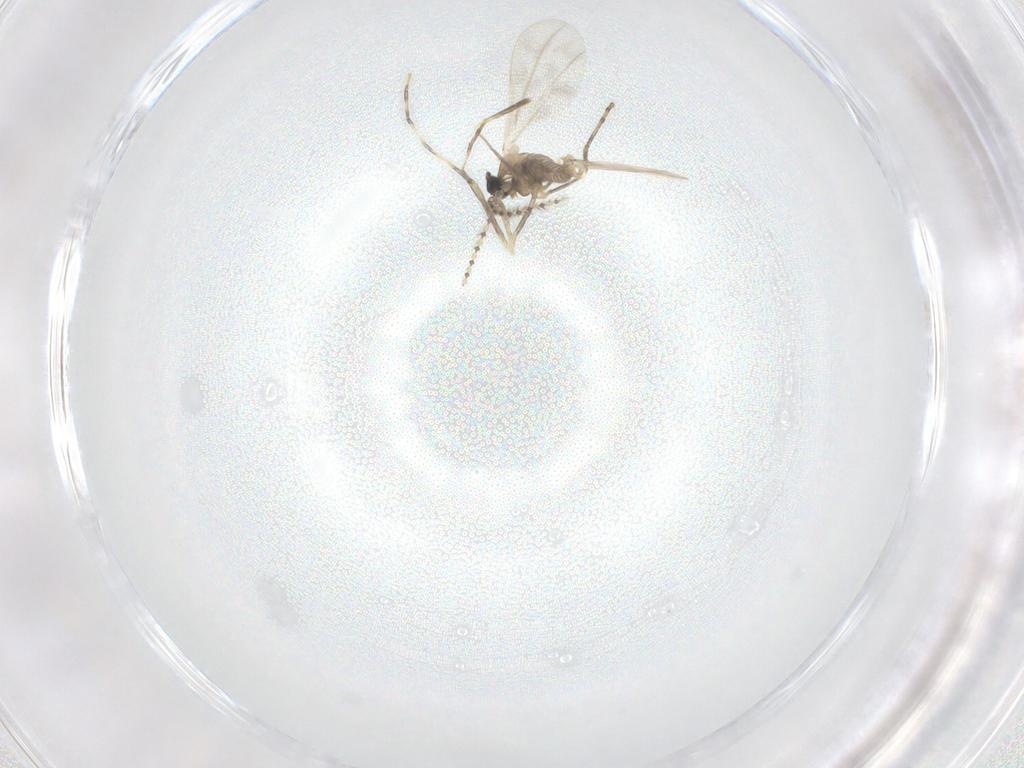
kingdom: Animalia
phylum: Arthropoda
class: Insecta
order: Diptera
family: Cecidomyiidae
